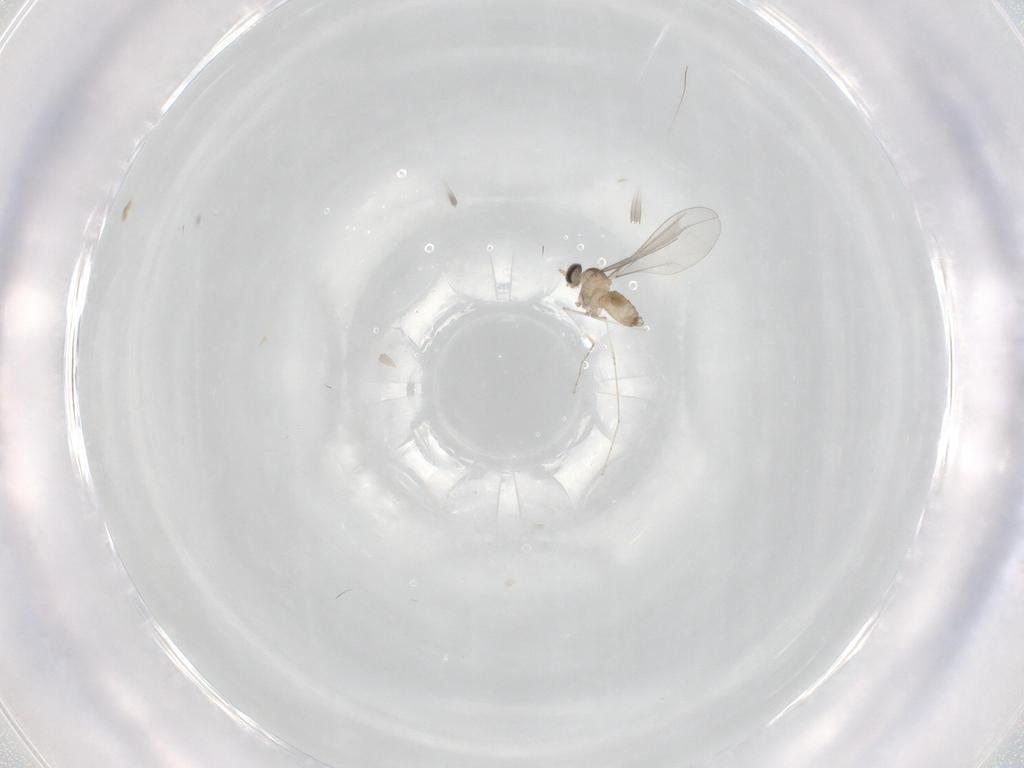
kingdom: Animalia
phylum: Arthropoda
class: Insecta
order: Diptera
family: Cecidomyiidae
